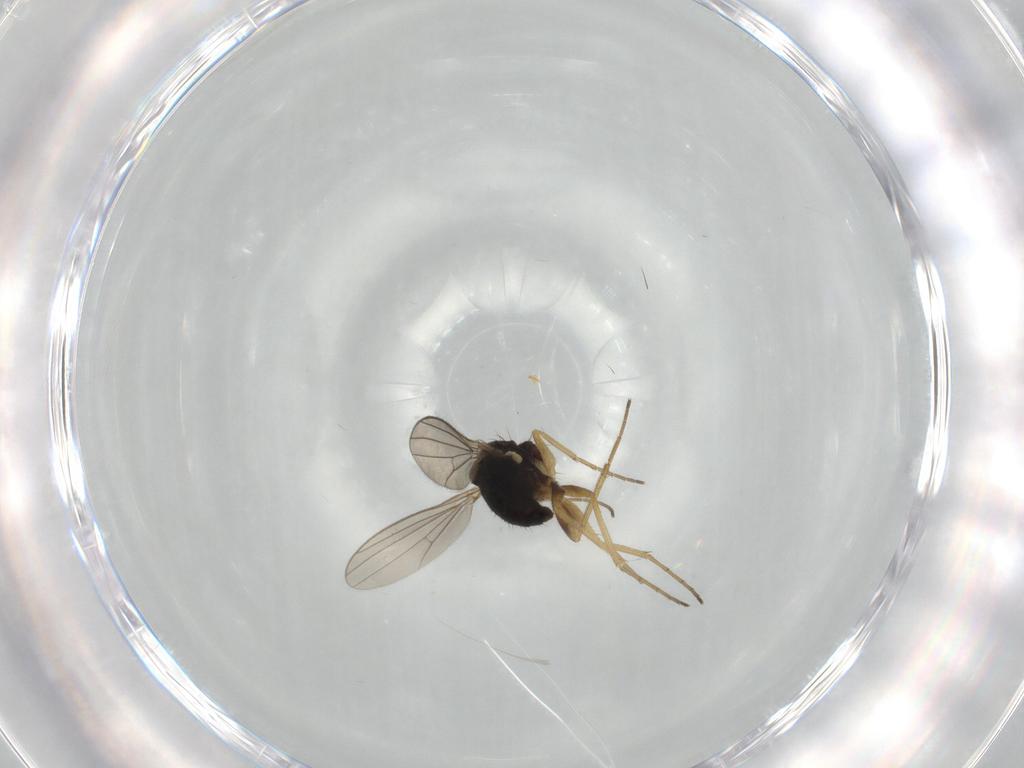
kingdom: Animalia
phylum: Arthropoda
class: Insecta
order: Diptera
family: Dolichopodidae
